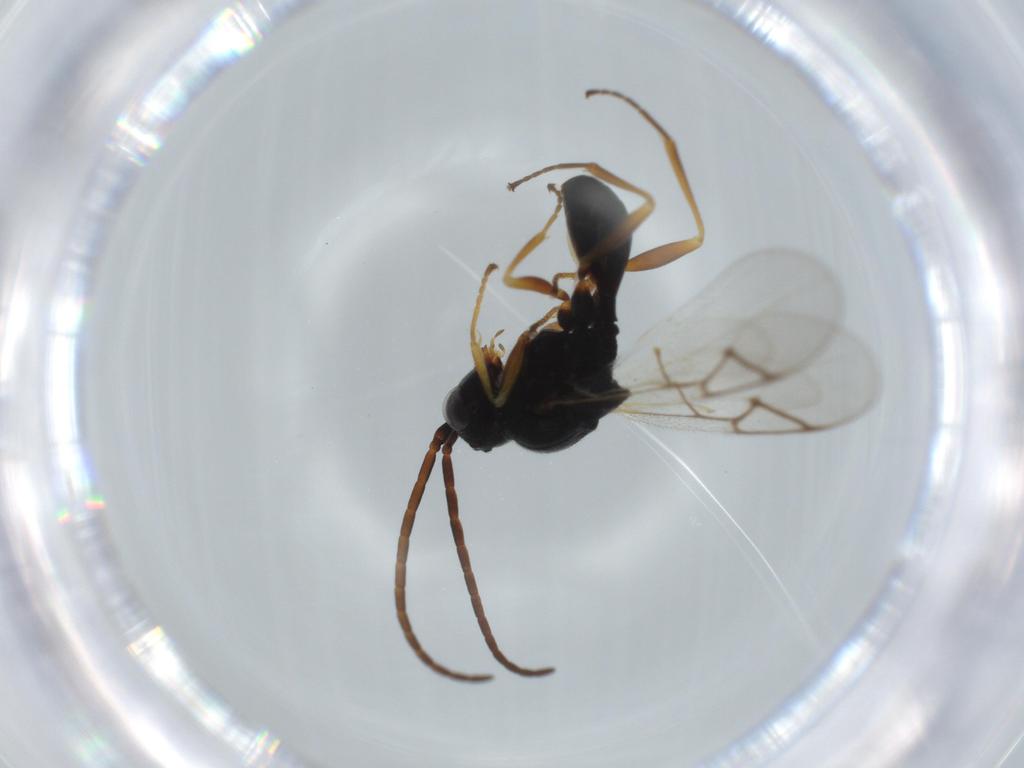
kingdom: Animalia
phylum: Arthropoda
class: Insecta
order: Hymenoptera
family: Figitidae
